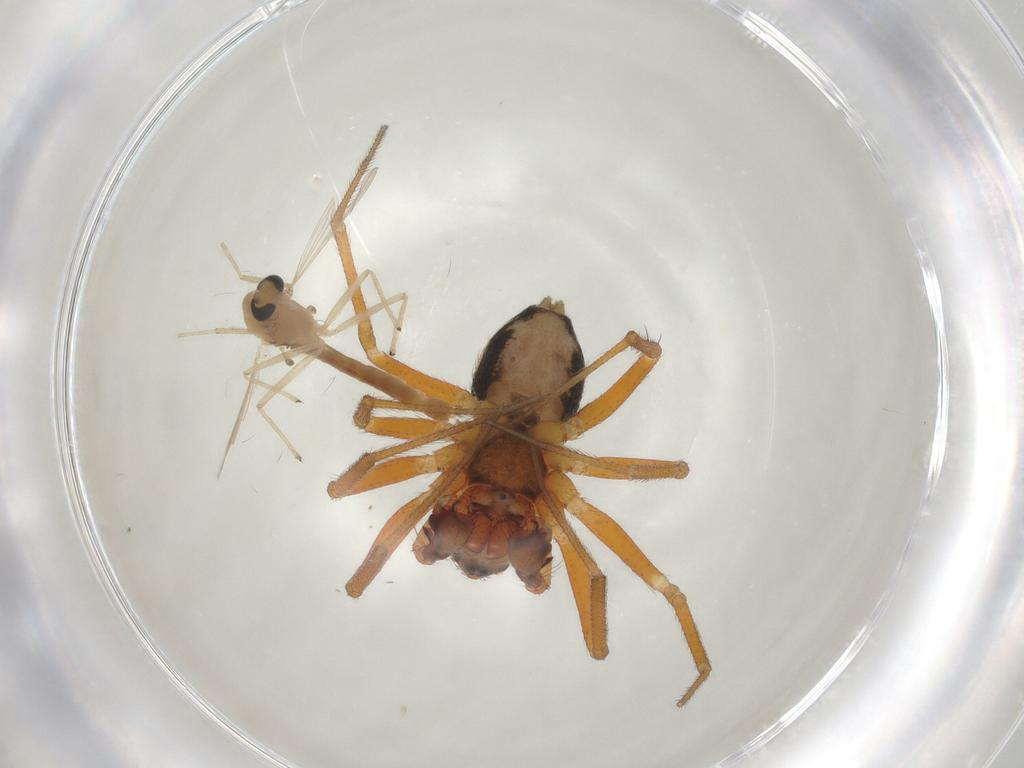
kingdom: Animalia
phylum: Arthropoda
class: Arachnida
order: Araneae
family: Linyphiidae
